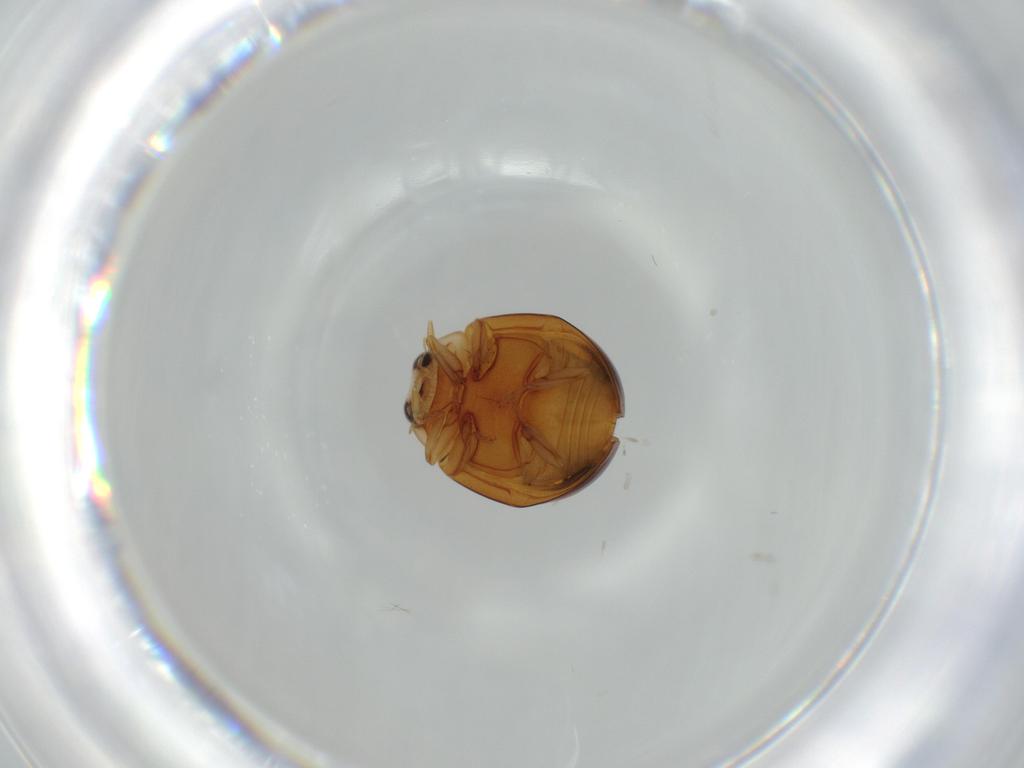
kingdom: Animalia
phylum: Arthropoda
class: Insecta
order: Coleoptera
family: Coccinellidae
